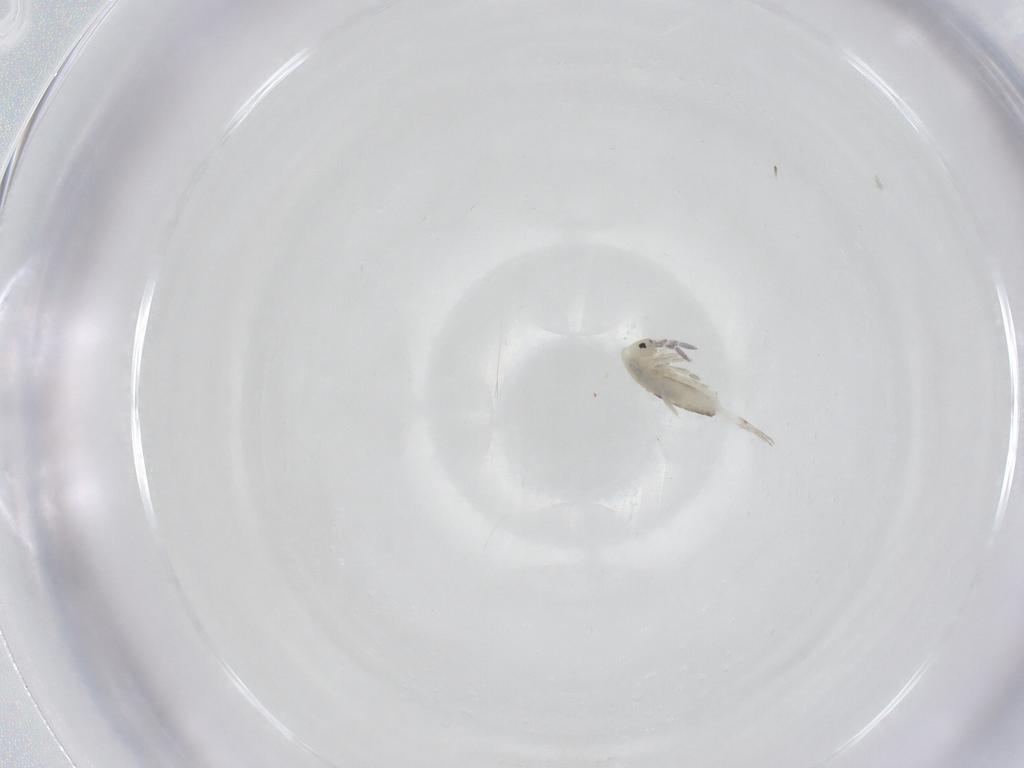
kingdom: Animalia
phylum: Arthropoda
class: Collembola
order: Entomobryomorpha
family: Entomobryidae
